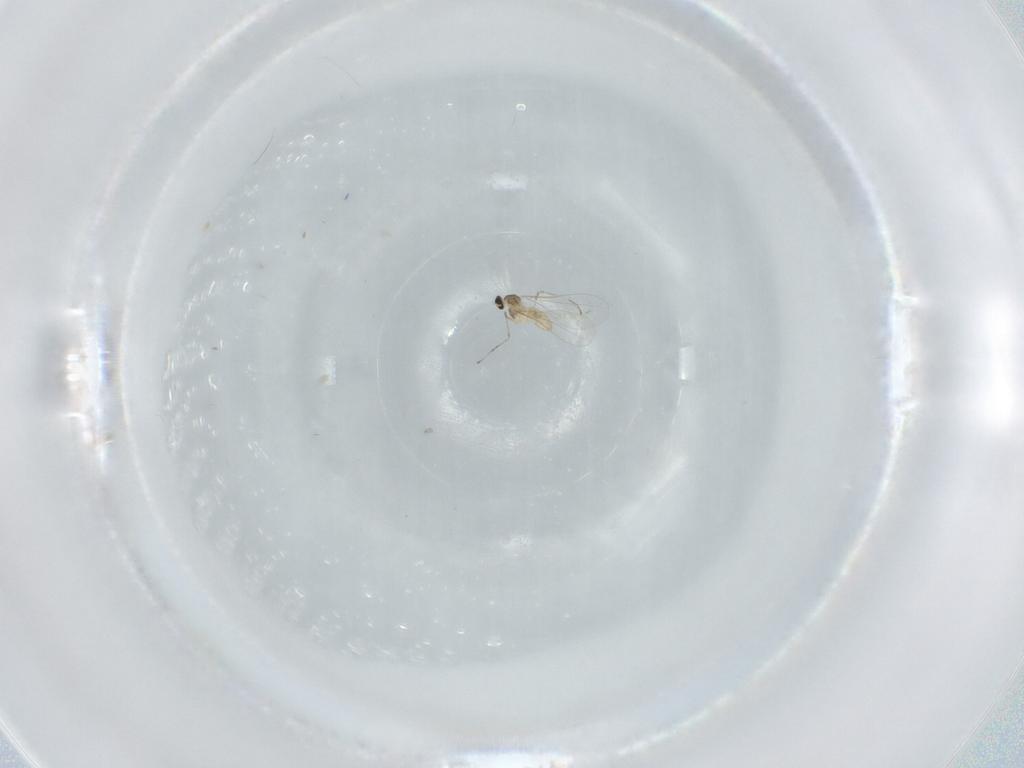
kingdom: Animalia
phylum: Arthropoda
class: Insecta
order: Diptera
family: Cecidomyiidae
